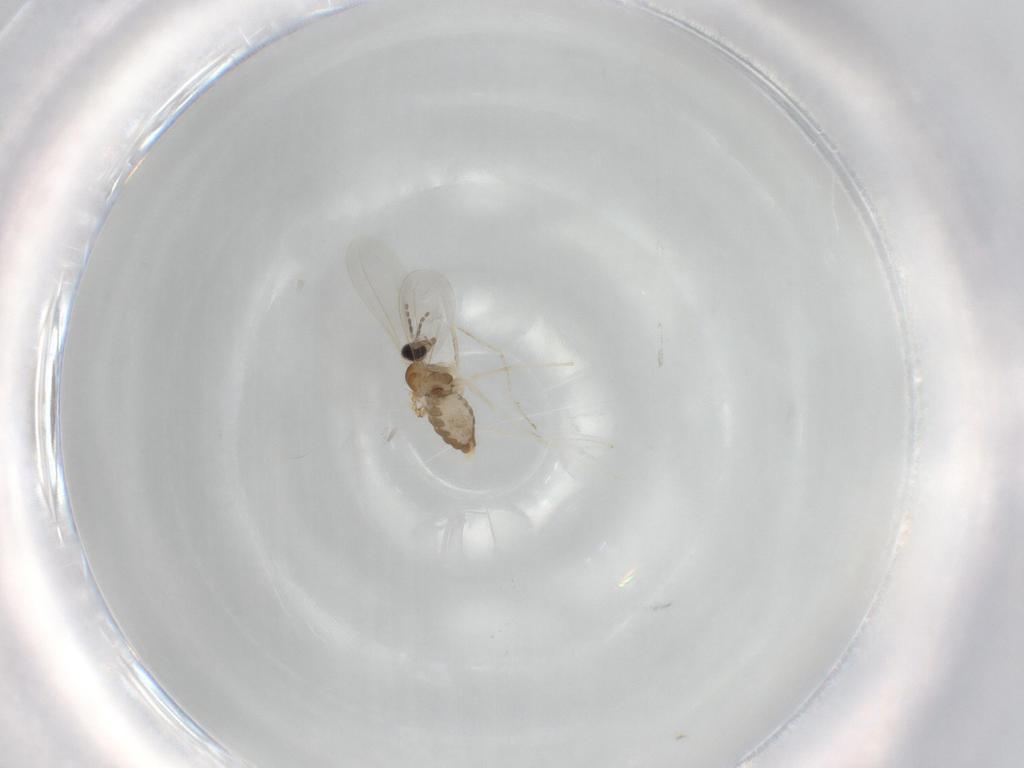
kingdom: Animalia
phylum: Arthropoda
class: Insecta
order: Diptera
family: Cecidomyiidae
